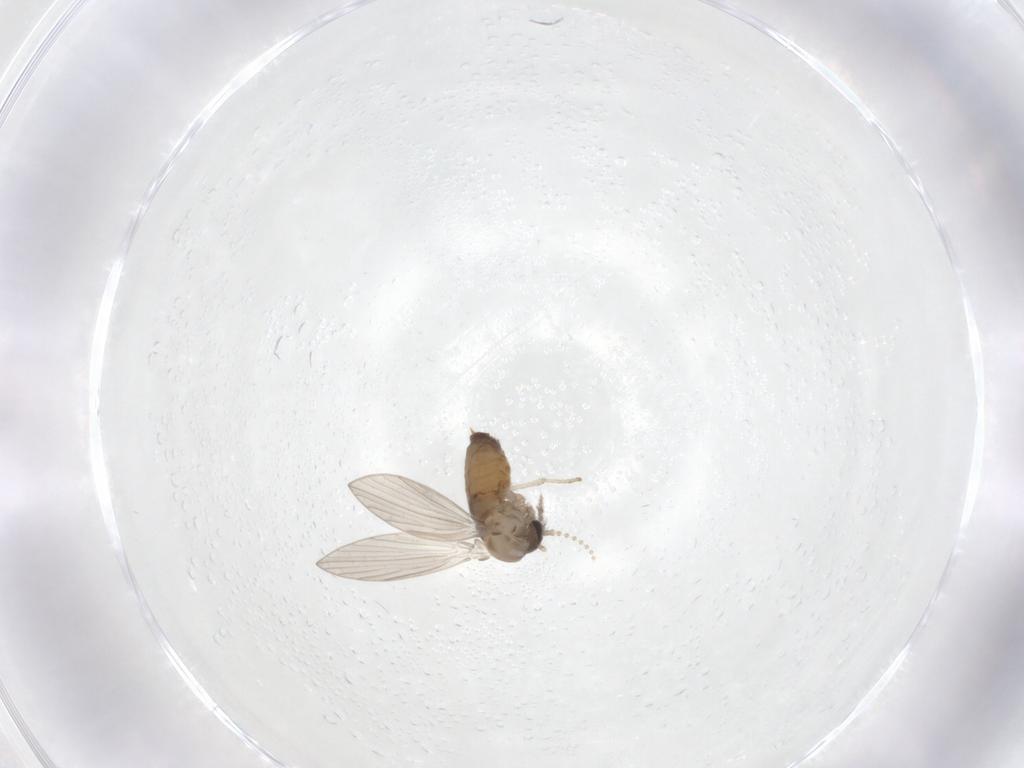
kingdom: Animalia
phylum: Arthropoda
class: Insecta
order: Diptera
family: Psychodidae
